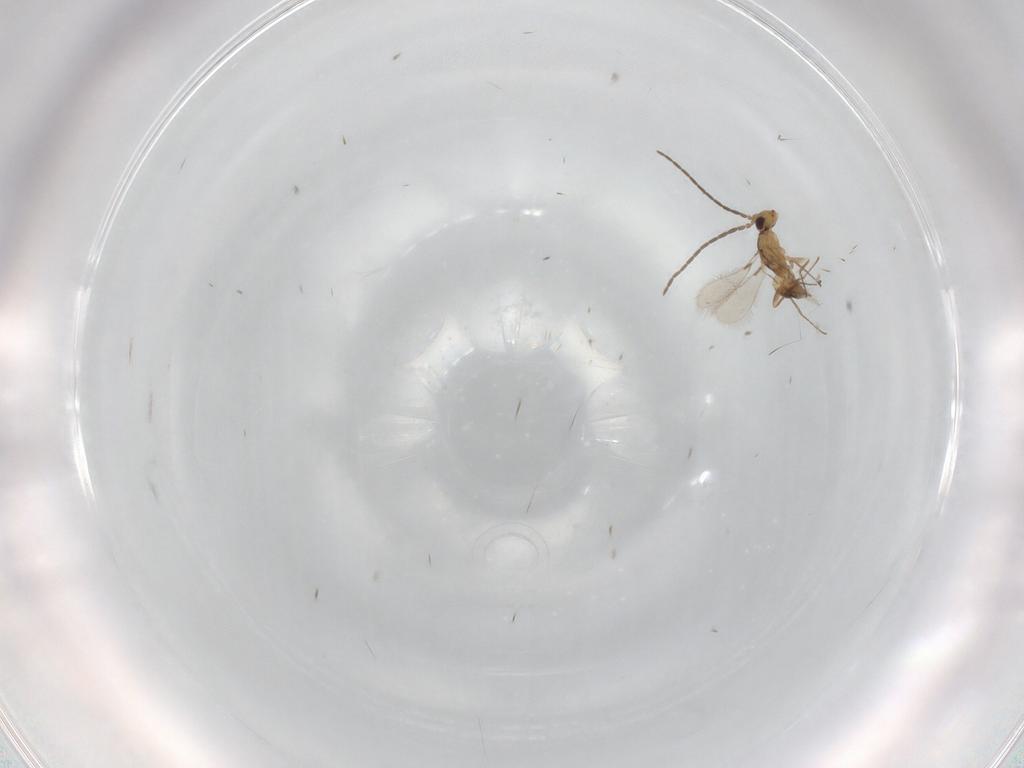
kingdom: Animalia
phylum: Arthropoda
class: Insecta
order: Hymenoptera
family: Mymaridae
